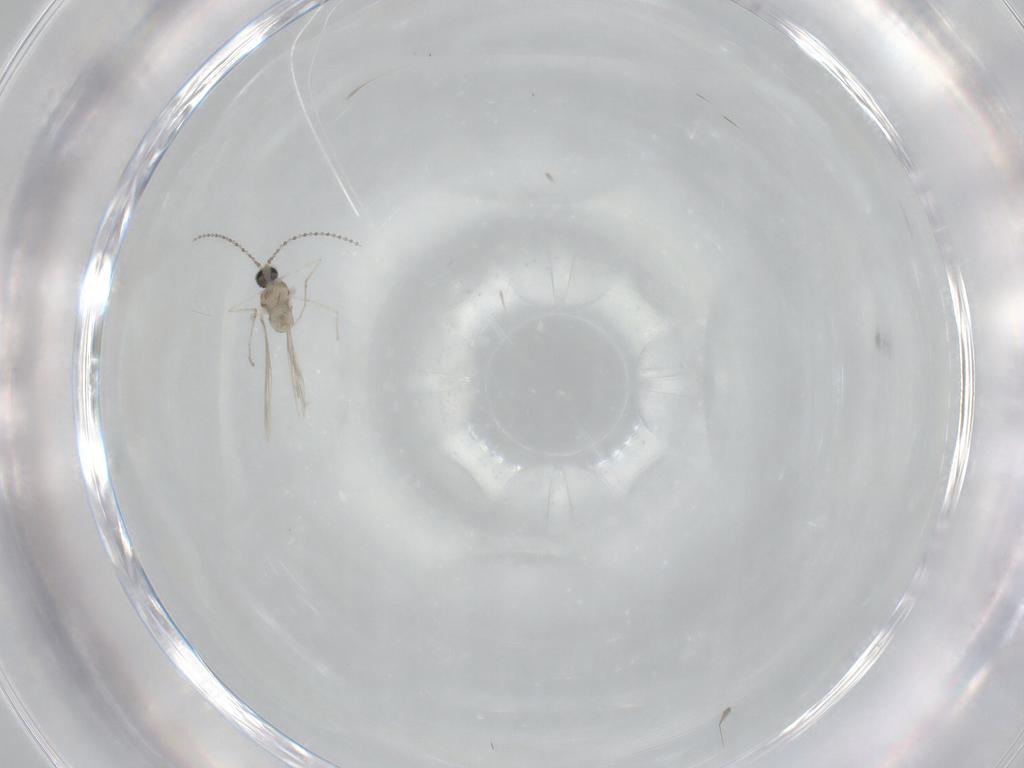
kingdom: Animalia
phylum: Arthropoda
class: Insecta
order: Diptera
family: Cecidomyiidae
